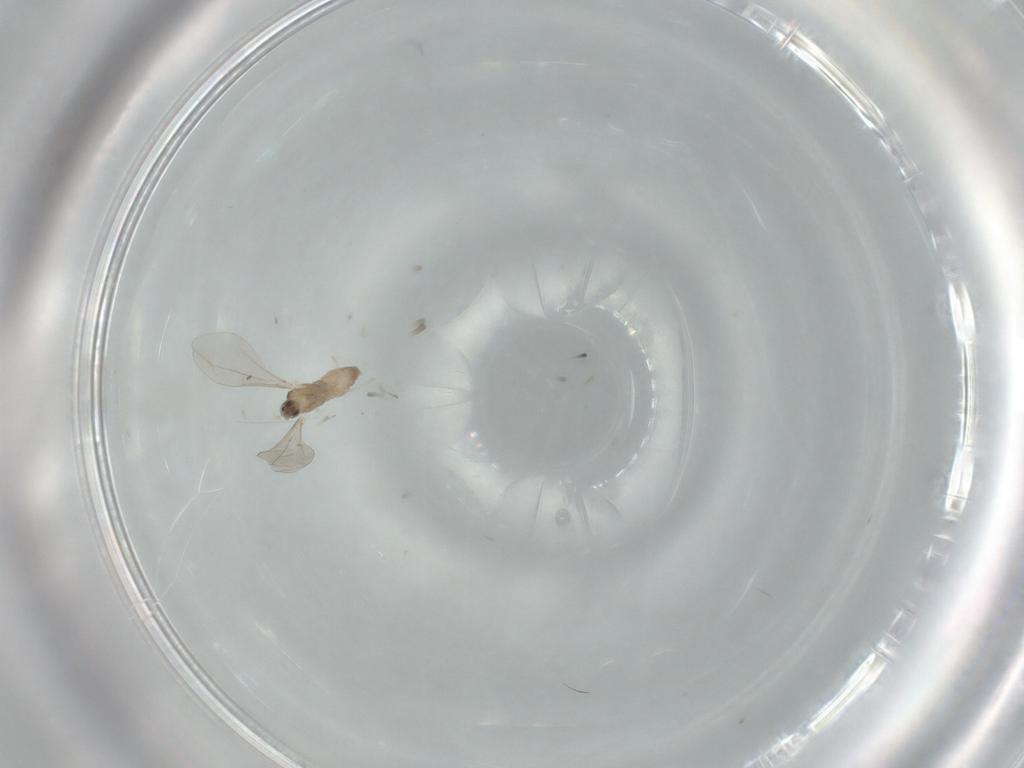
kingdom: Animalia
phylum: Arthropoda
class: Insecta
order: Diptera
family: Cecidomyiidae
